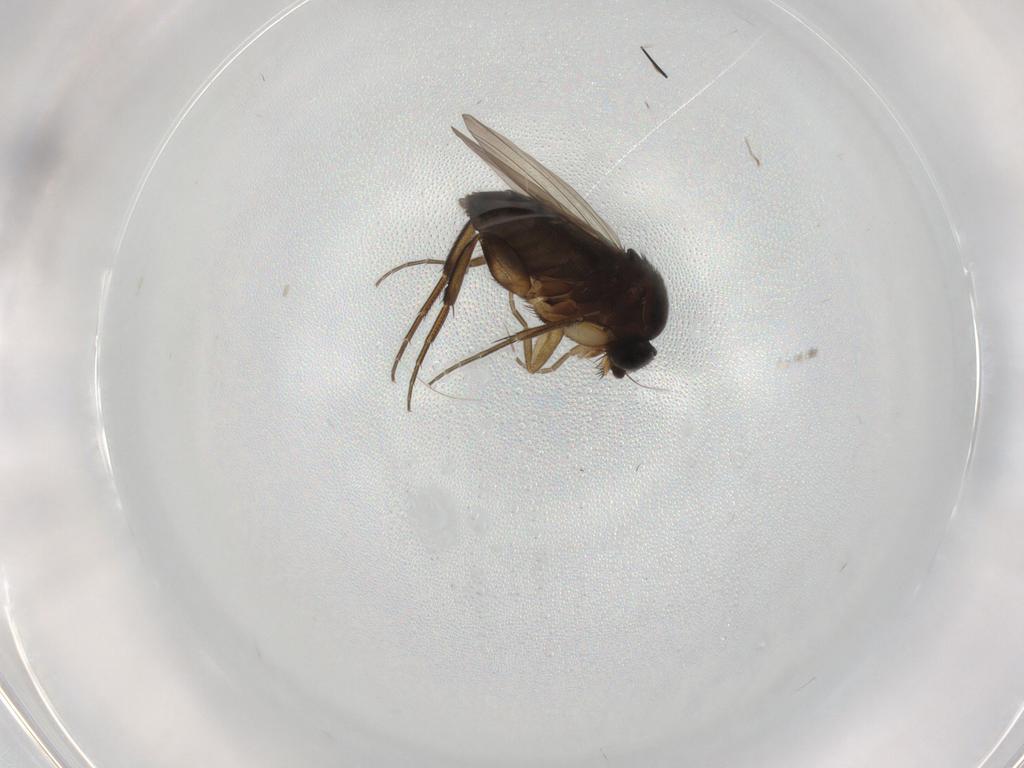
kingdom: Animalia
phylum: Arthropoda
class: Insecta
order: Diptera
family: Phoridae
